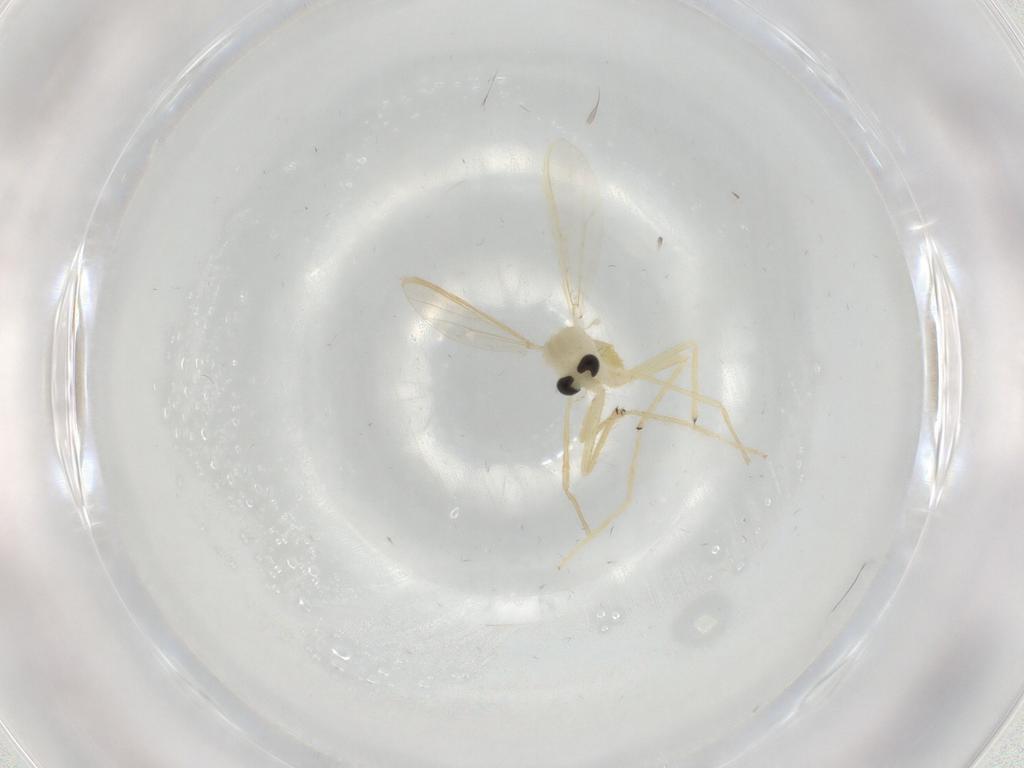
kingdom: Animalia
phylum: Arthropoda
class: Insecta
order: Diptera
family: Chironomidae
